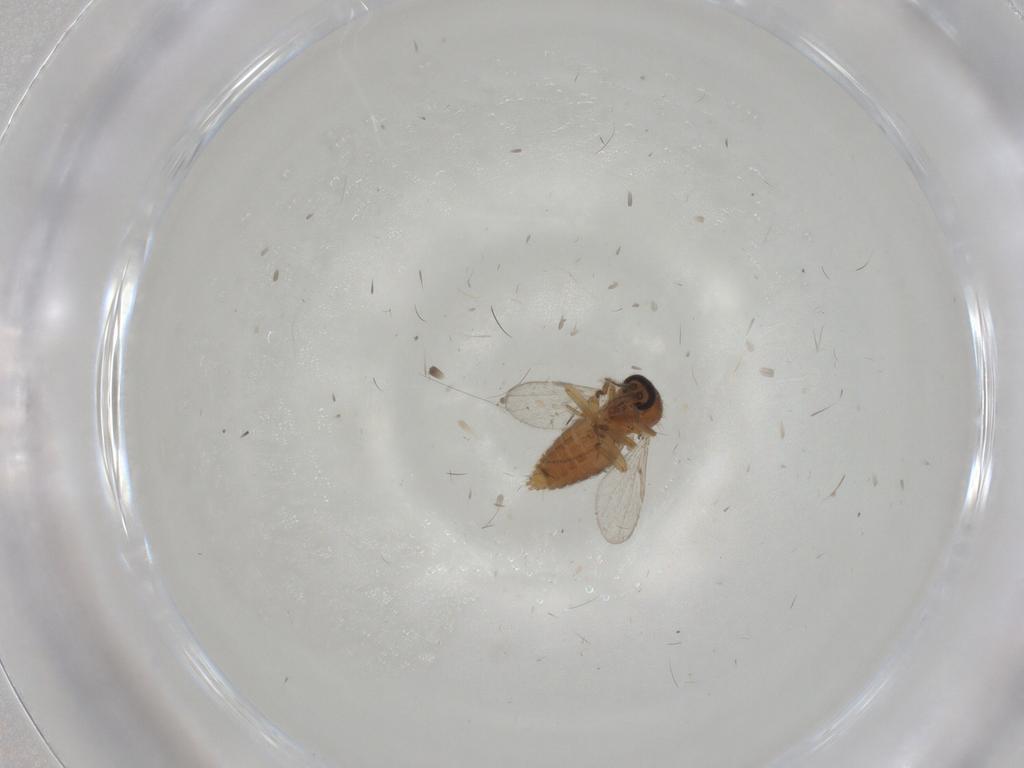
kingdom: Animalia
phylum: Arthropoda
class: Insecta
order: Diptera
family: Ceratopogonidae
